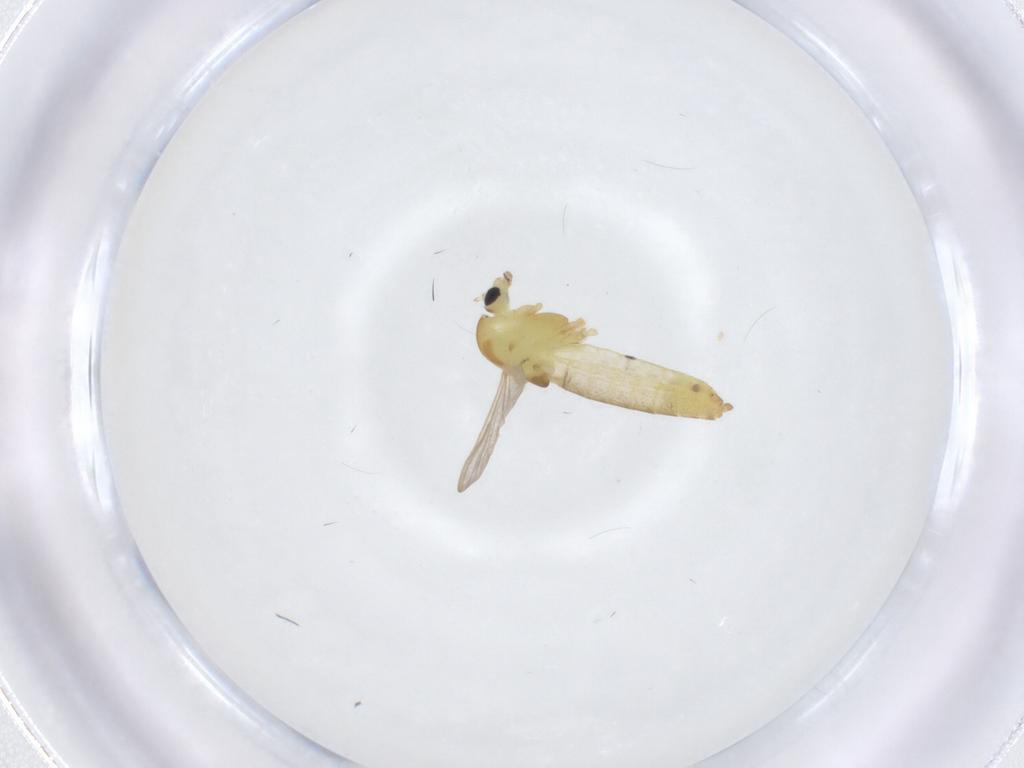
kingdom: Animalia
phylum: Arthropoda
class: Insecta
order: Diptera
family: Chironomidae
